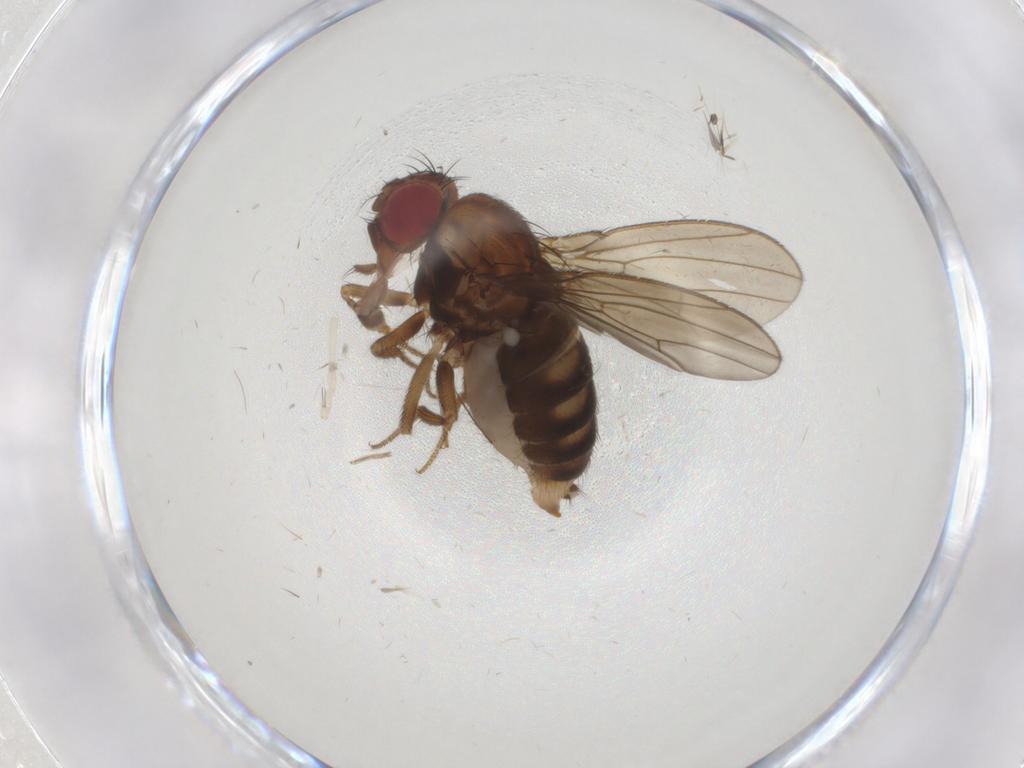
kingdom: Animalia
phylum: Arthropoda
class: Insecta
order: Diptera
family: Drosophilidae
